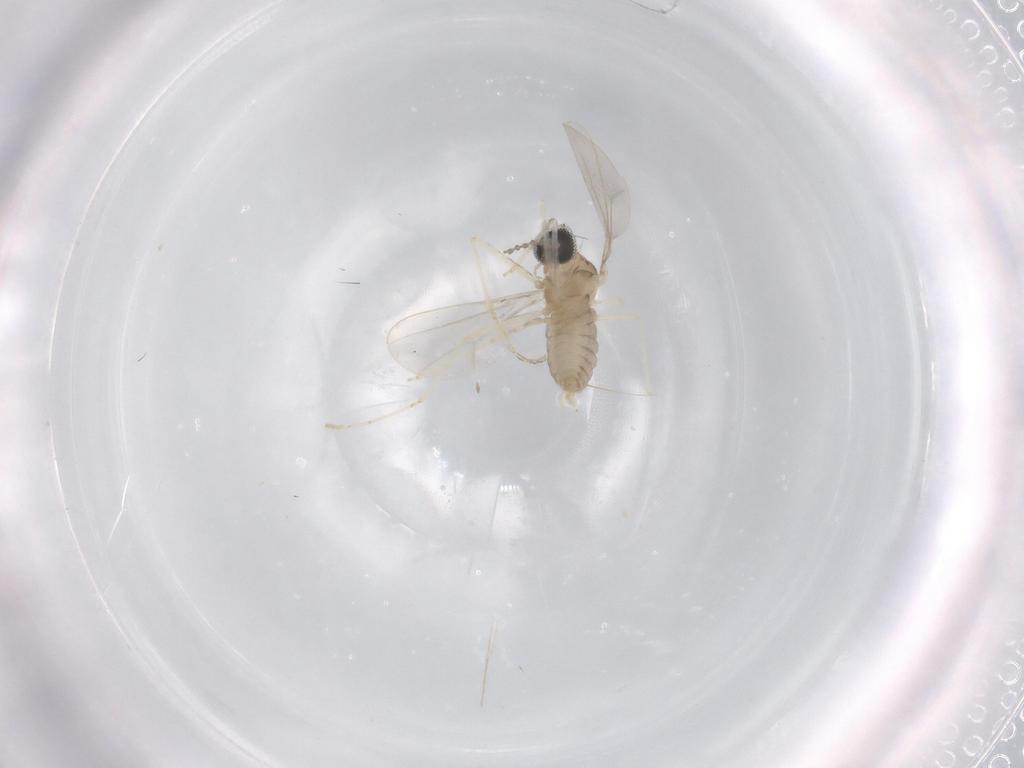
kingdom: Animalia
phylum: Arthropoda
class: Insecta
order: Diptera
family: Cecidomyiidae
